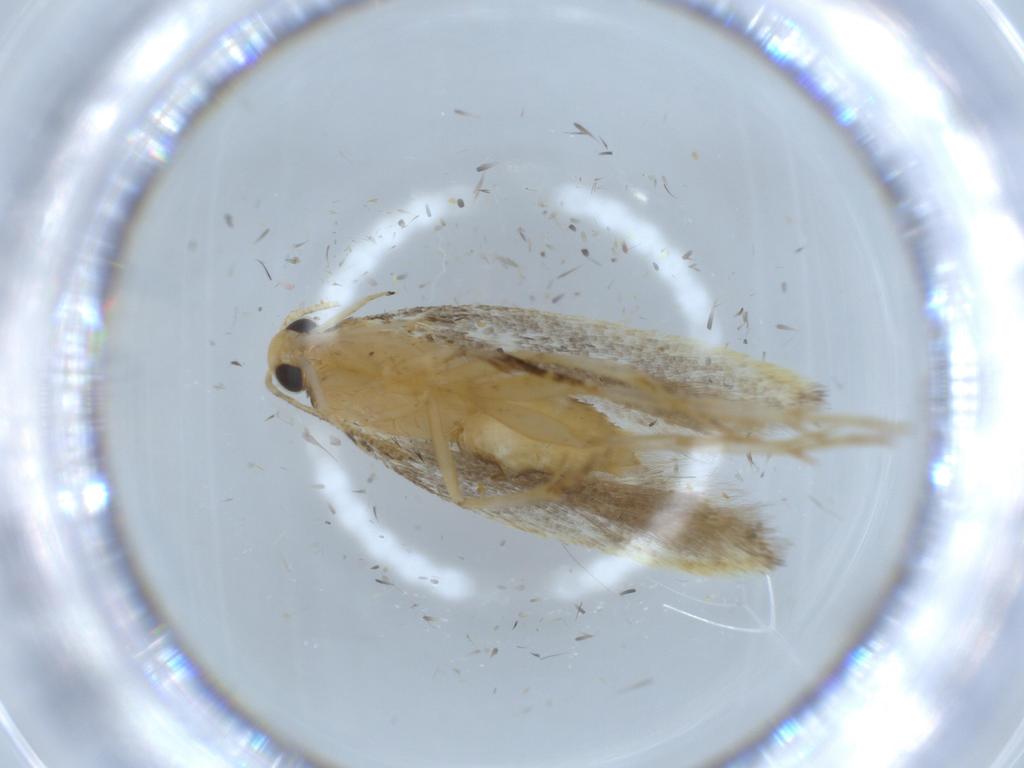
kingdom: Animalia
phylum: Arthropoda
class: Insecta
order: Lepidoptera
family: Autostichidae
